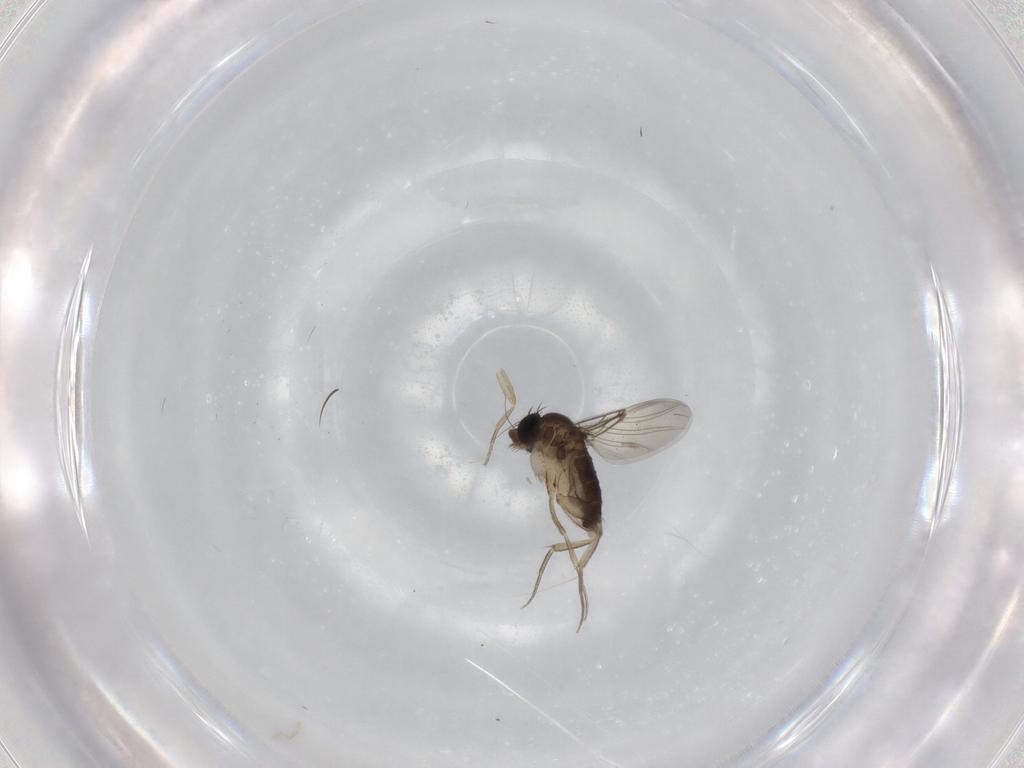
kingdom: Animalia
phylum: Arthropoda
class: Insecta
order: Diptera
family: Phoridae
